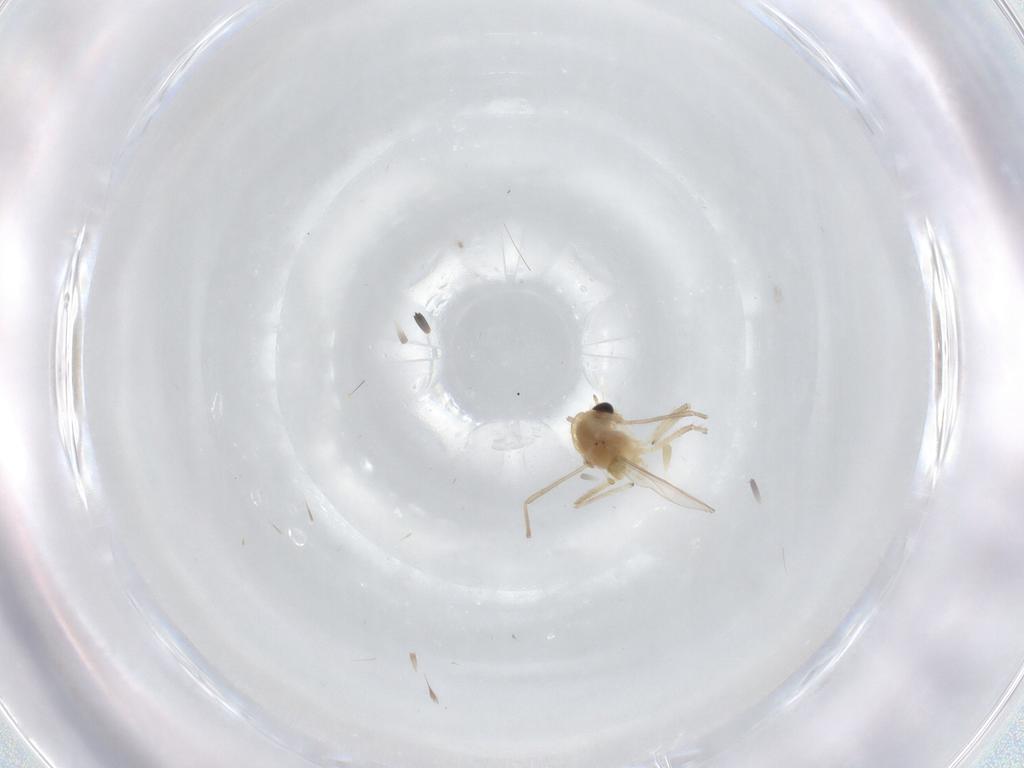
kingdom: Animalia
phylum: Arthropoda
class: Insecta
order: Diptera
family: Chironomidae
